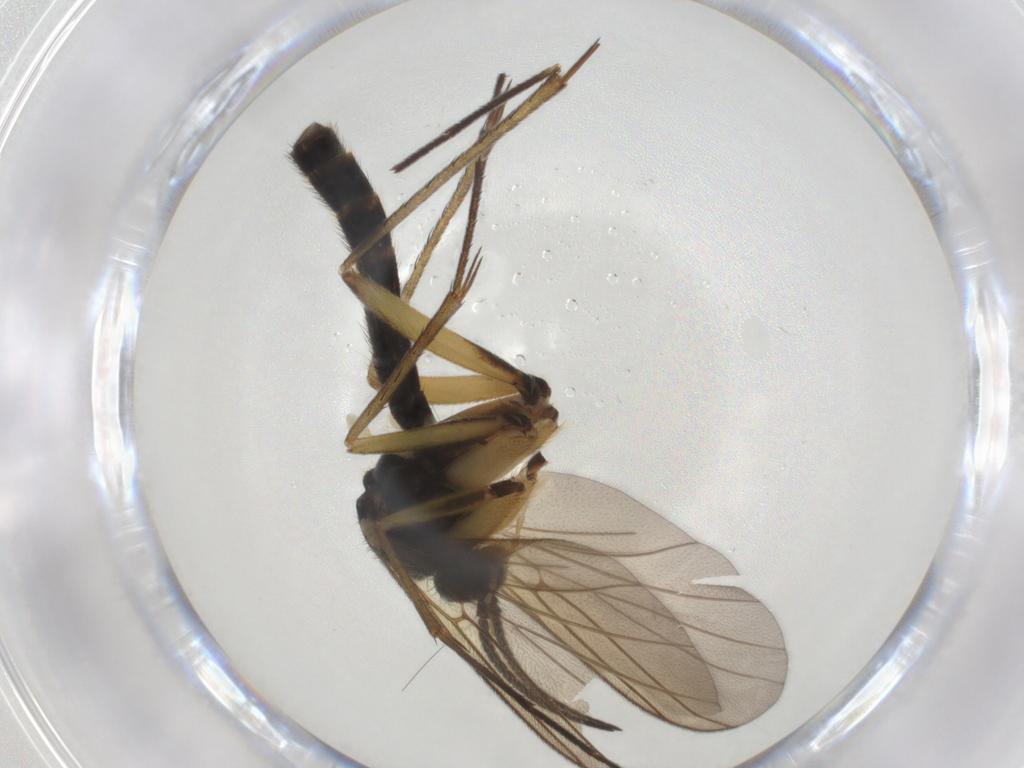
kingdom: Animalia
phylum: Arthropoda
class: Insecta
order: Diptera
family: Mycetophilidae
